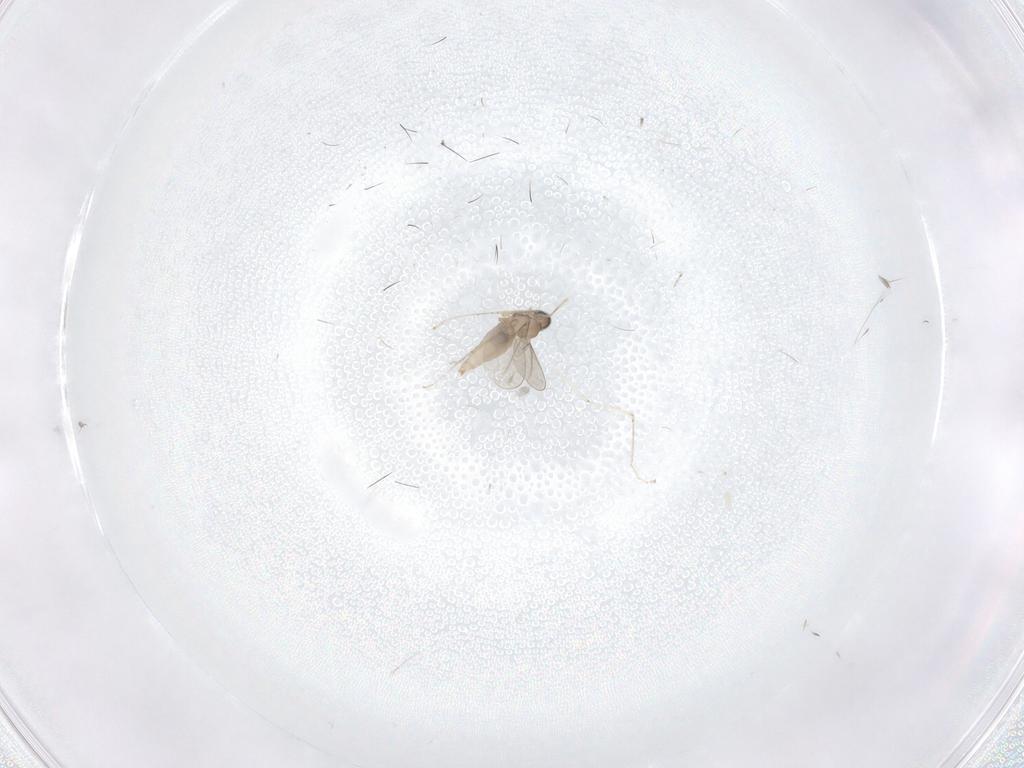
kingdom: Animalia
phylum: Arthropoda
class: Insecta
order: Diptera
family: Cecidomyiidae
